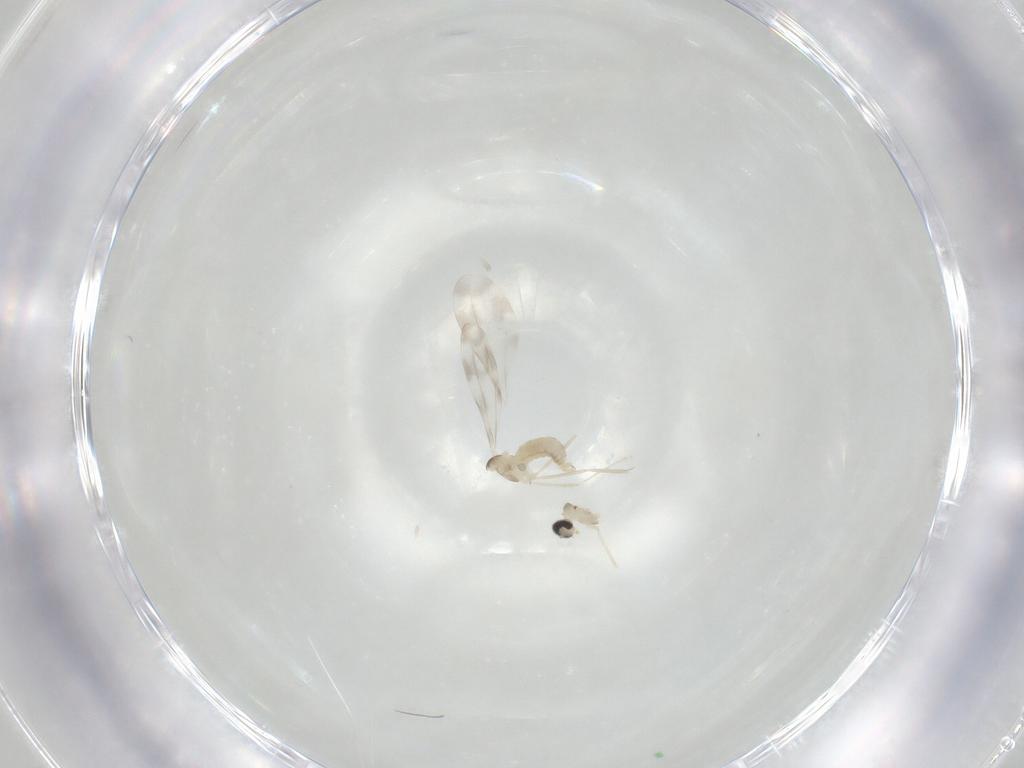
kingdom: Animalia
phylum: Arthropoda
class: Insecta
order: Diptera
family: Cecidomyiidae
